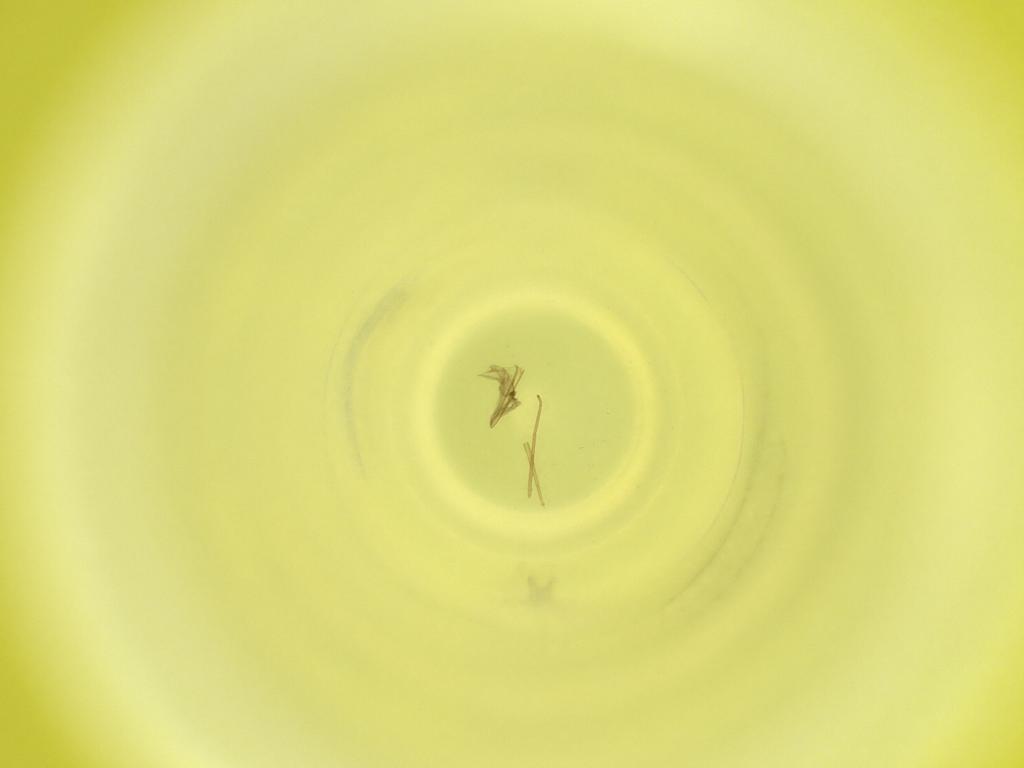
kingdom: Animalia
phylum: Arthropoda
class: Insecta
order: Diptera
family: Cecidomyiidae
